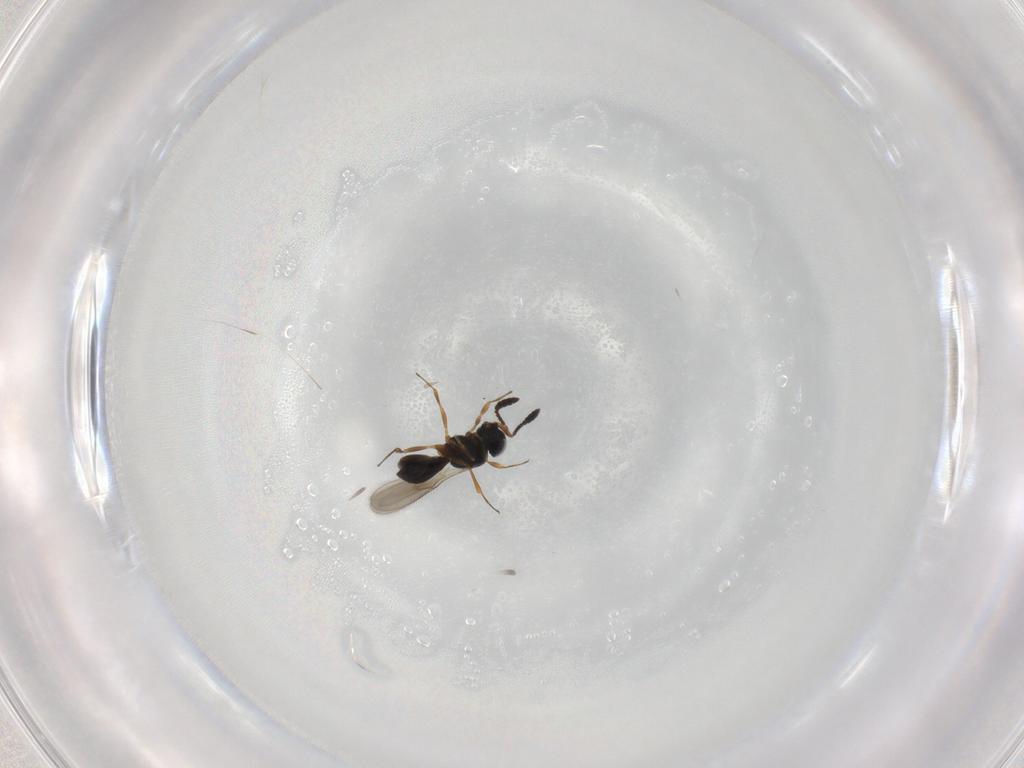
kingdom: Animalia
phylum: Arthropoda
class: Insecta
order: Hymenoptera
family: Scelionidae
